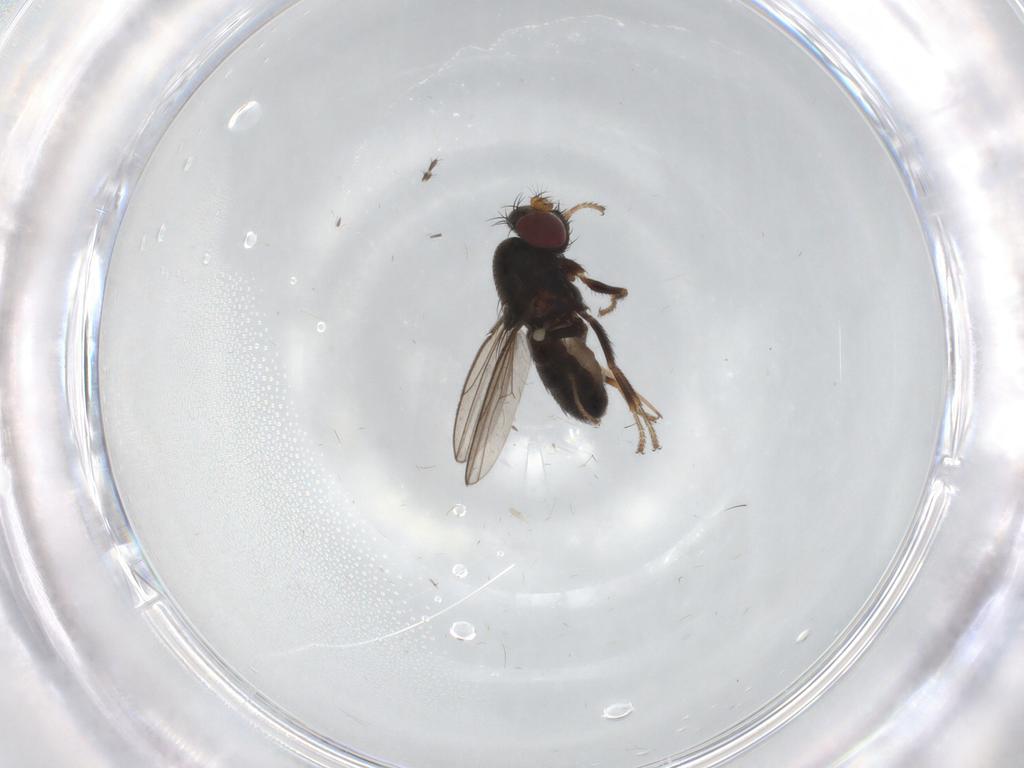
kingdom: Animalia
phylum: Arthropoda
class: Insecta
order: Diptera
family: Ephydridae
